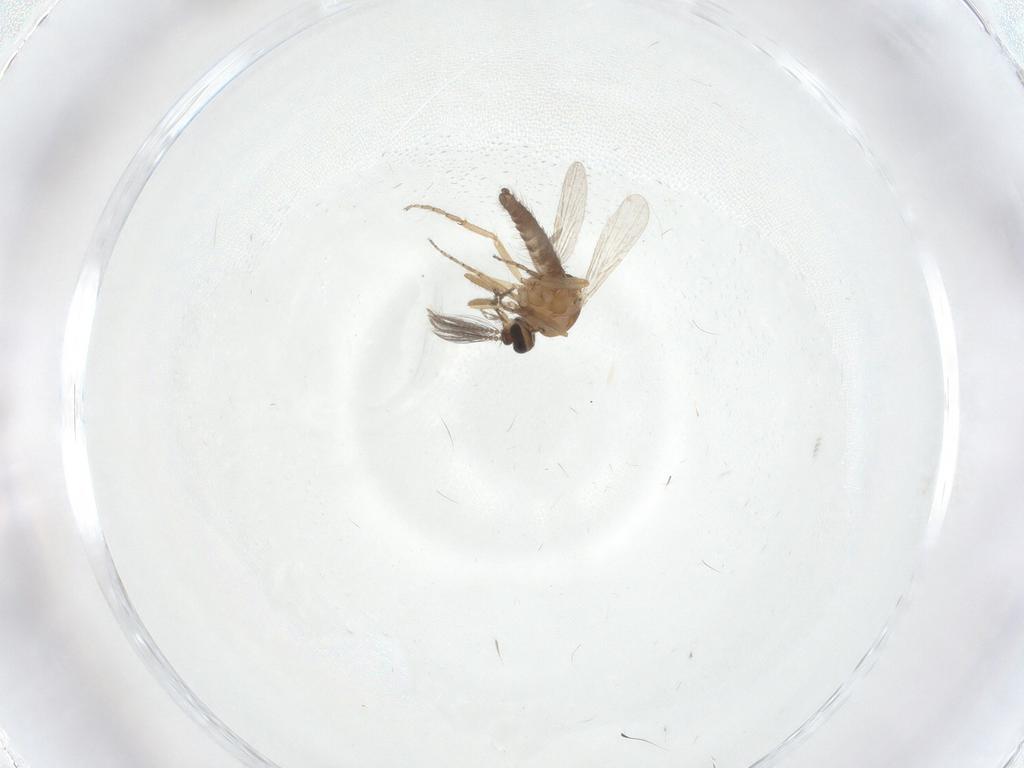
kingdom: Animalia
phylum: Arthropoda
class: Insecta
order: Diptera
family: Ceratopogonidae
